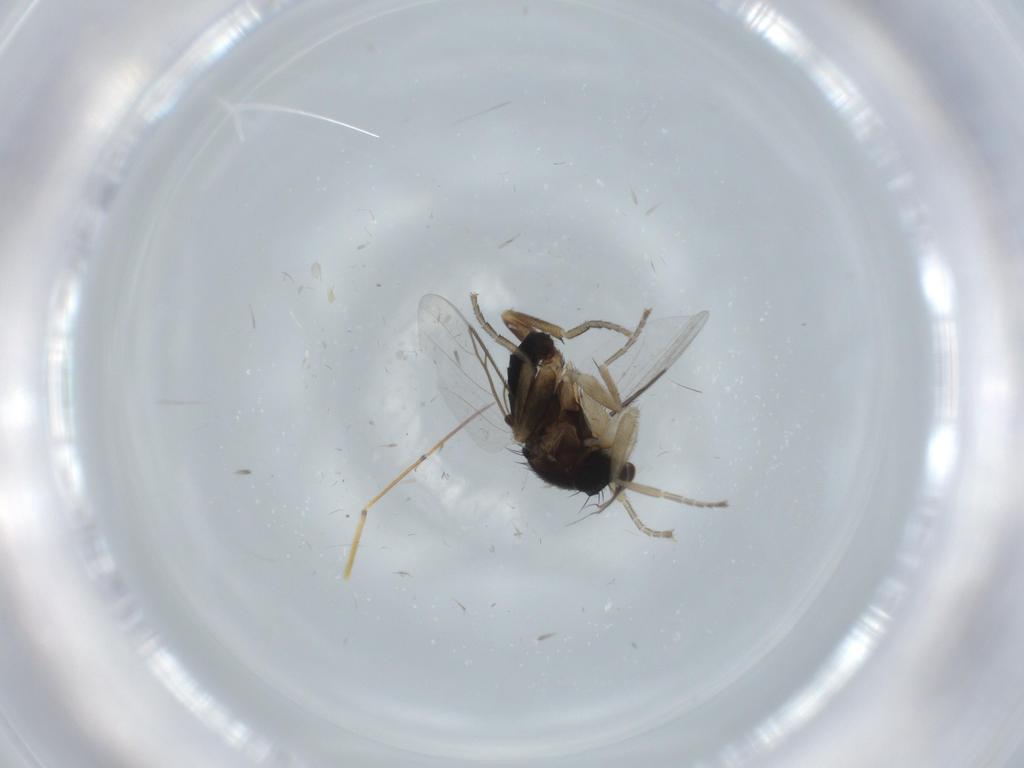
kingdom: Animalia
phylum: Arthropoda
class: Insecta
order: Diptera
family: Phoridae
